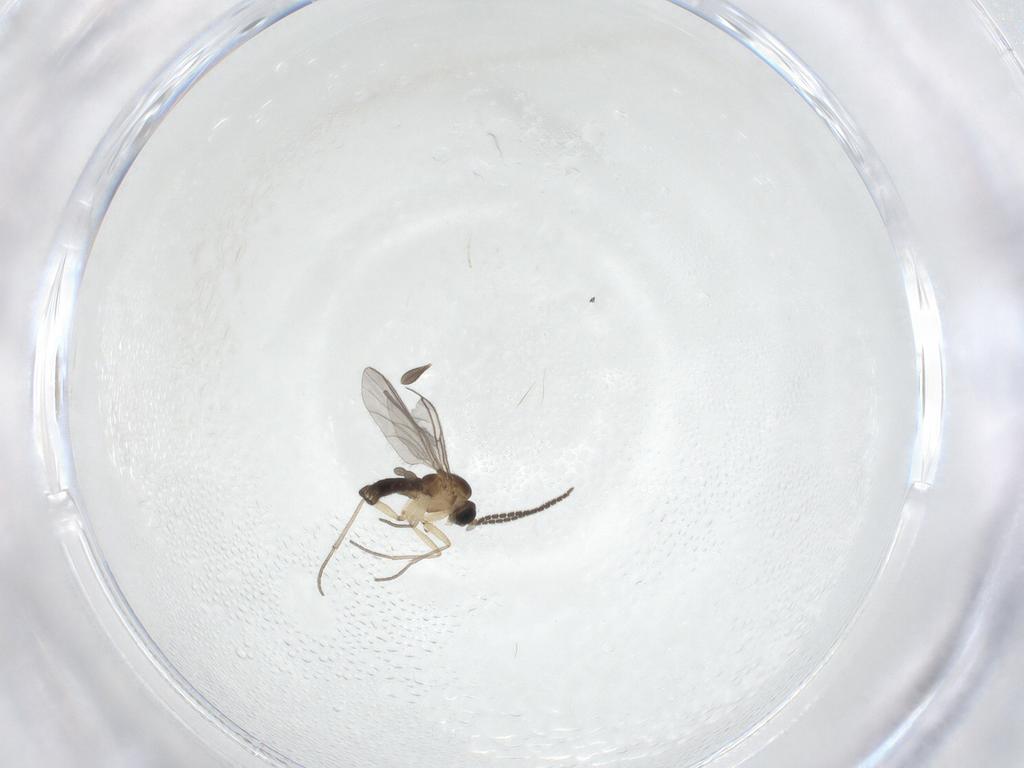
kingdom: Animalia
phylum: Arthropoda
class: Insecta
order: Diptera
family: Sciaridae
